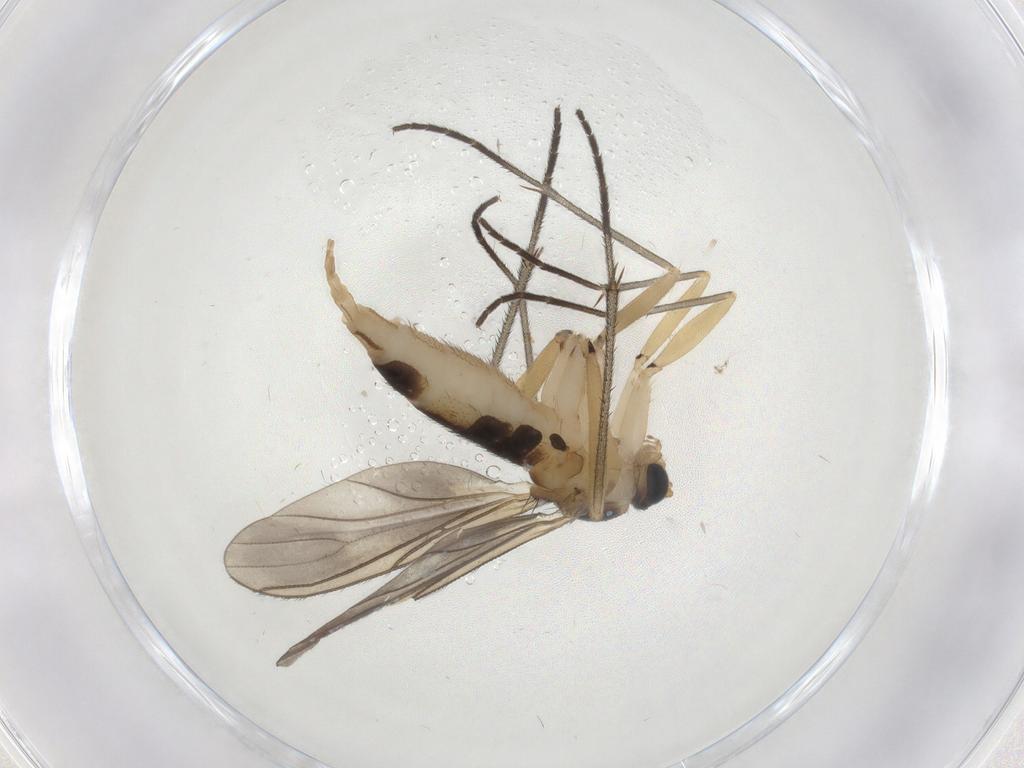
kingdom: Animalia
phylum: Arthropoda
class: Insecta
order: Diptera
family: Sciaridae
